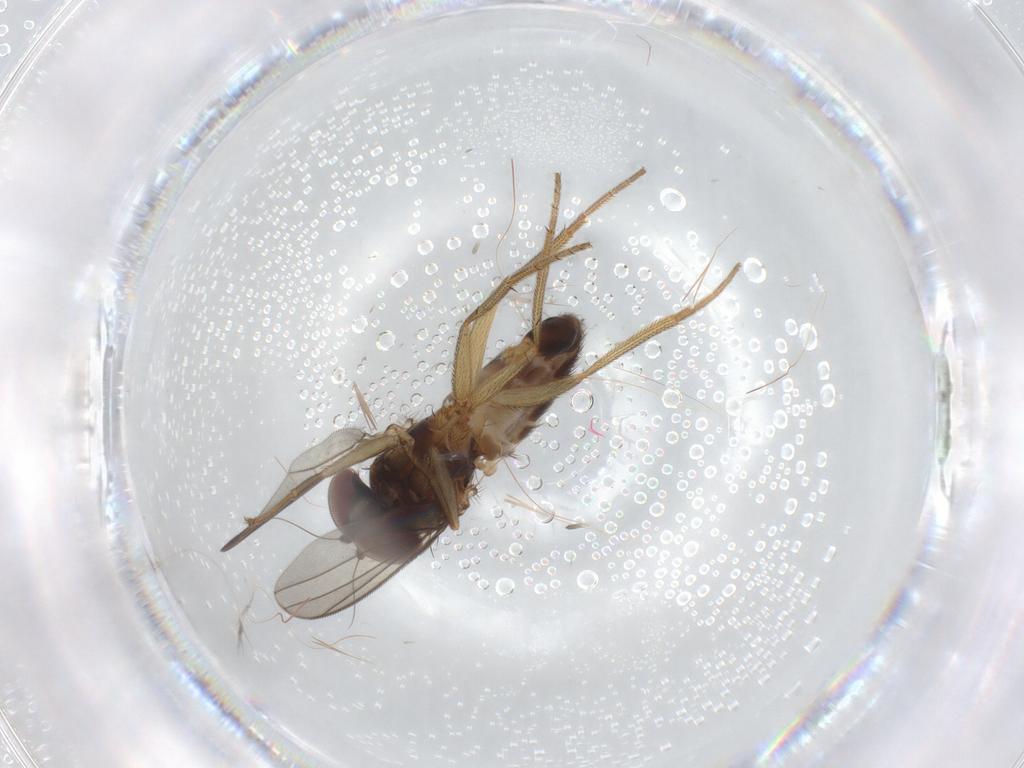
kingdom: Animalia
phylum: Arthropoda
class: Insecta
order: Diptera
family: Dolichopodidae
